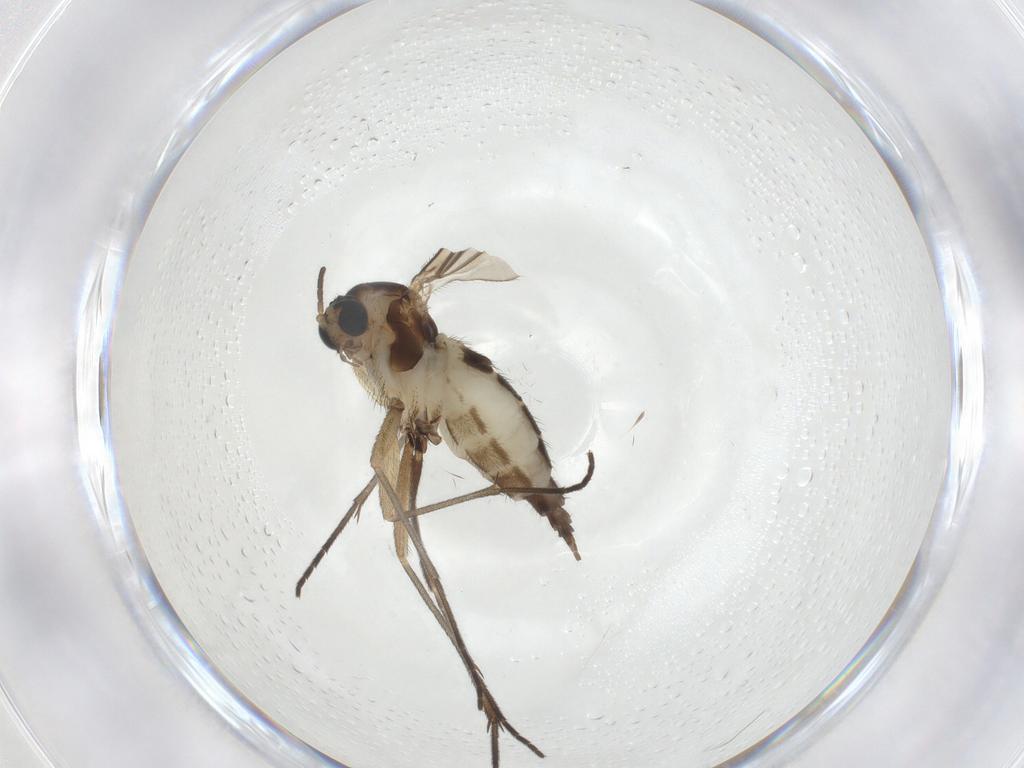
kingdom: Animalia
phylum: Arthropoda
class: Insecta
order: Diptera
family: Sciaridae
